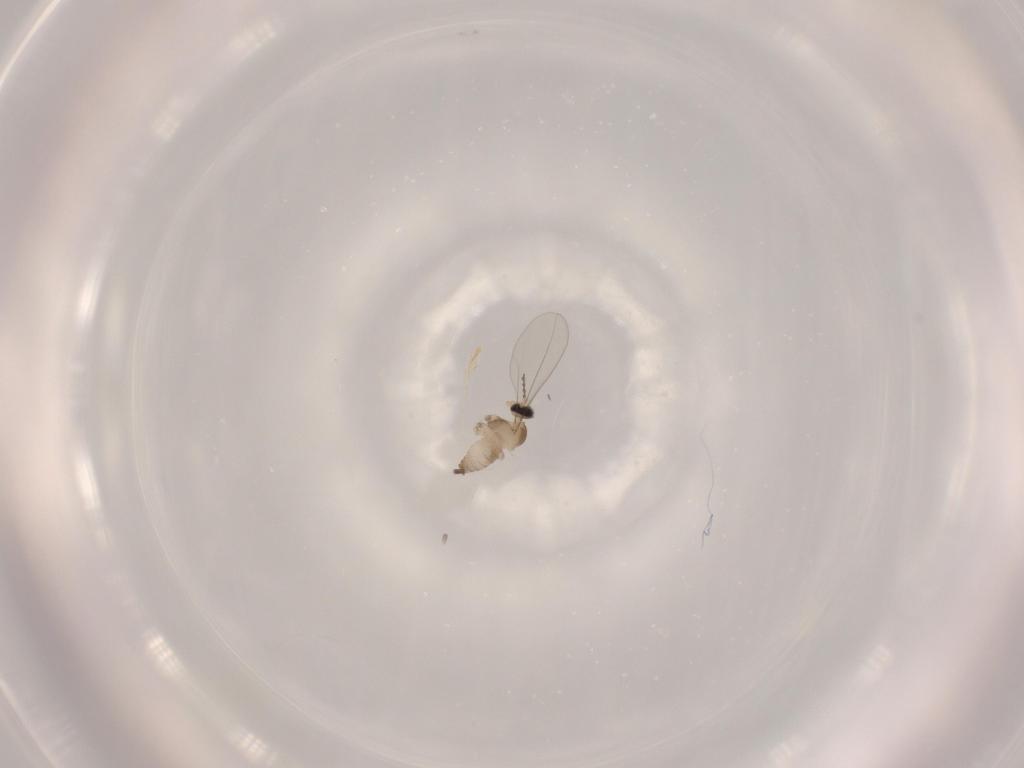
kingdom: Animalia
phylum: Arthropoda
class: Insecta
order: Diptera
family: Cecidomyiidae
